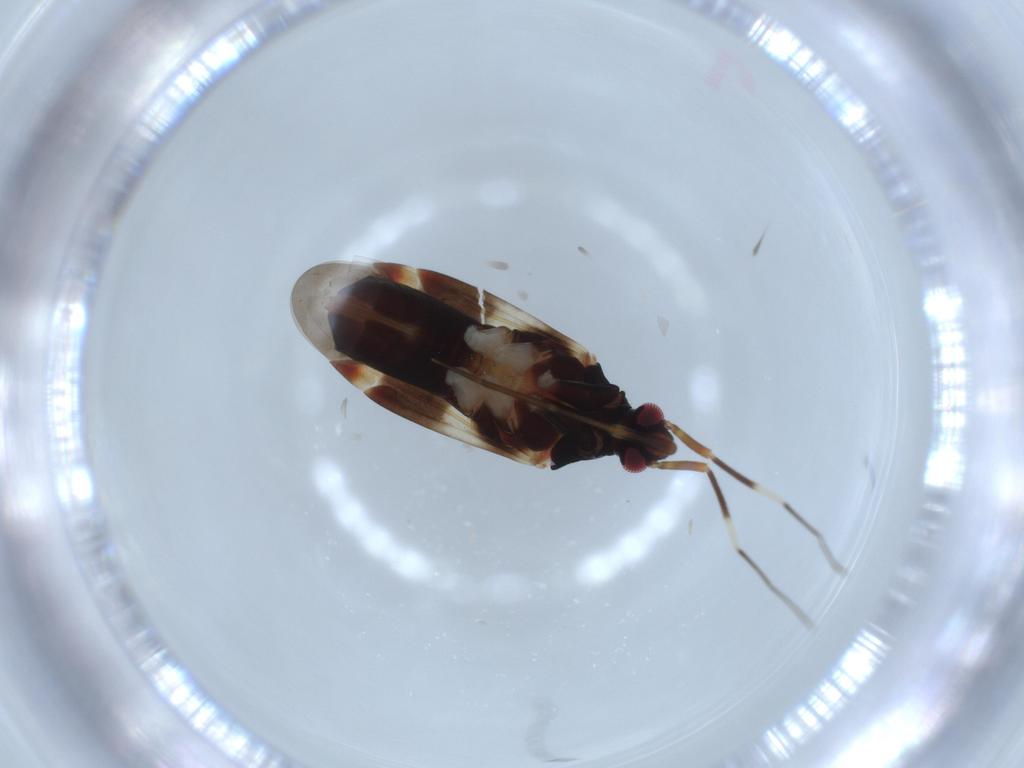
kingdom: Animalia
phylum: Arthropoda
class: Insecta
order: Hemiptera
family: Miridae
